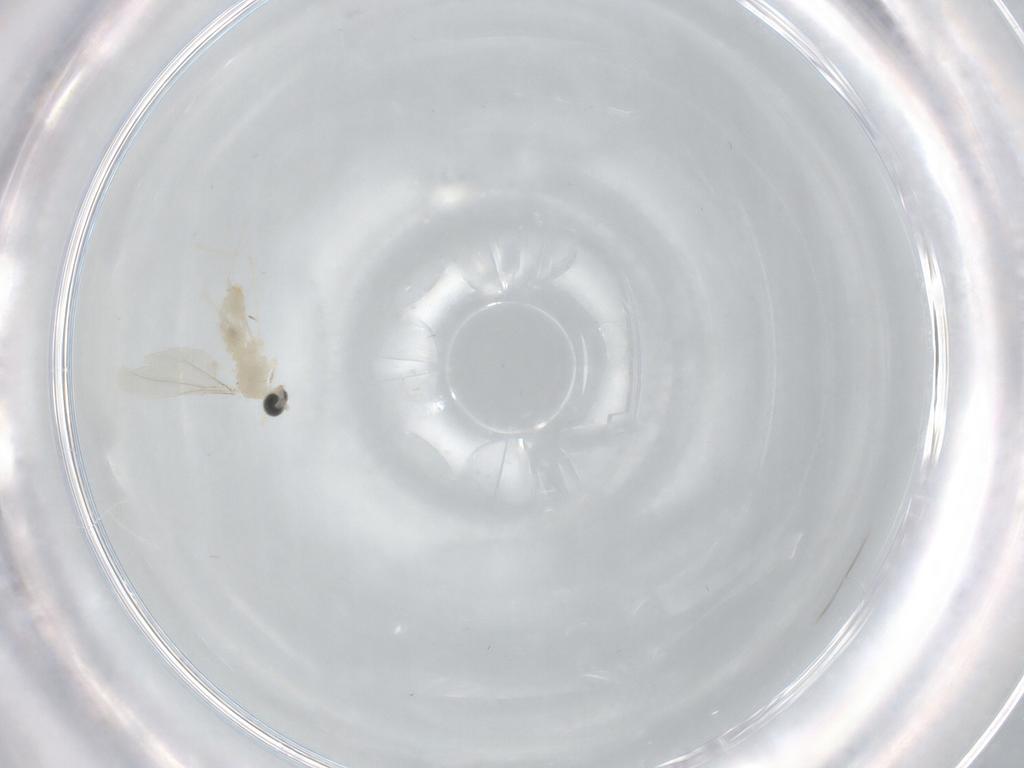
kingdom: Animalia
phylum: Arthropoda
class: Insecta
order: Diptera
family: Cecidomyiidae
